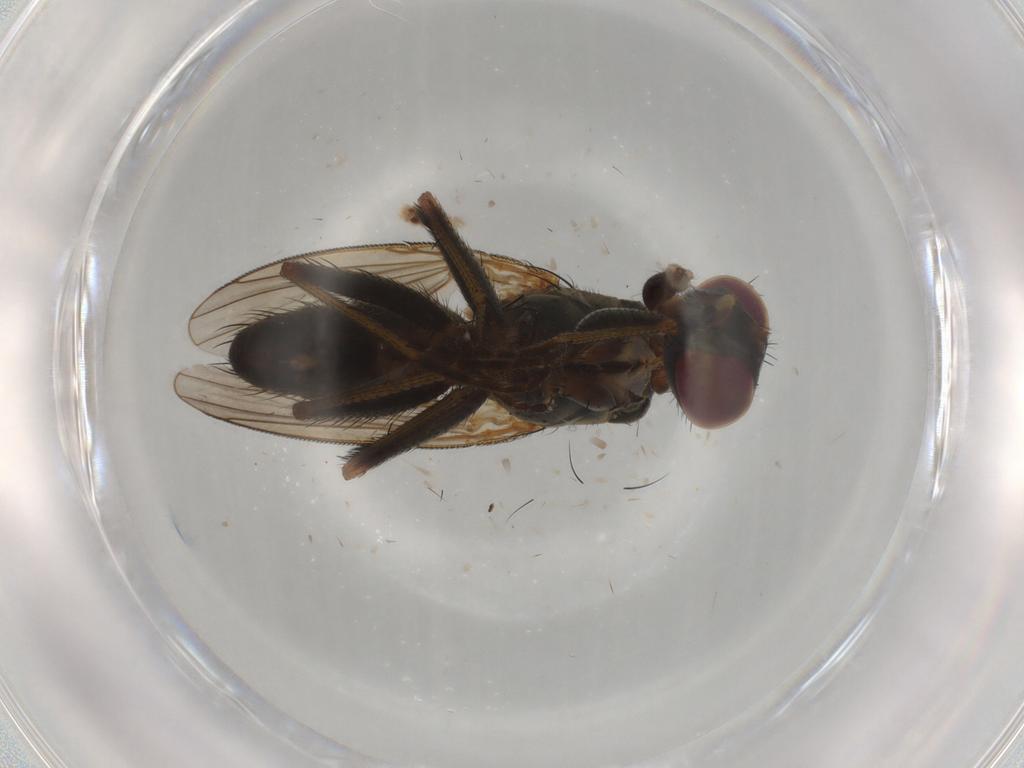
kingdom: Animalia
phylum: Arthropoda
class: Insecta
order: Diptera
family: Muscidae
